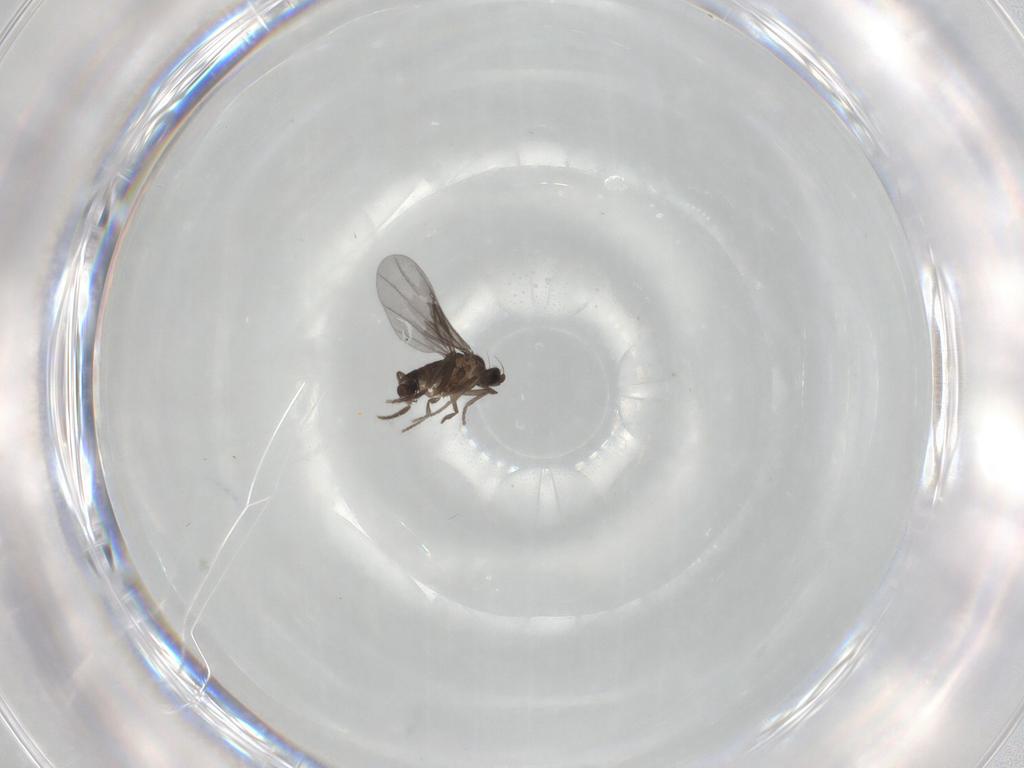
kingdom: Animalia
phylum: Arthropoda
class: Insecta
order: Diptera
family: Phoridae
